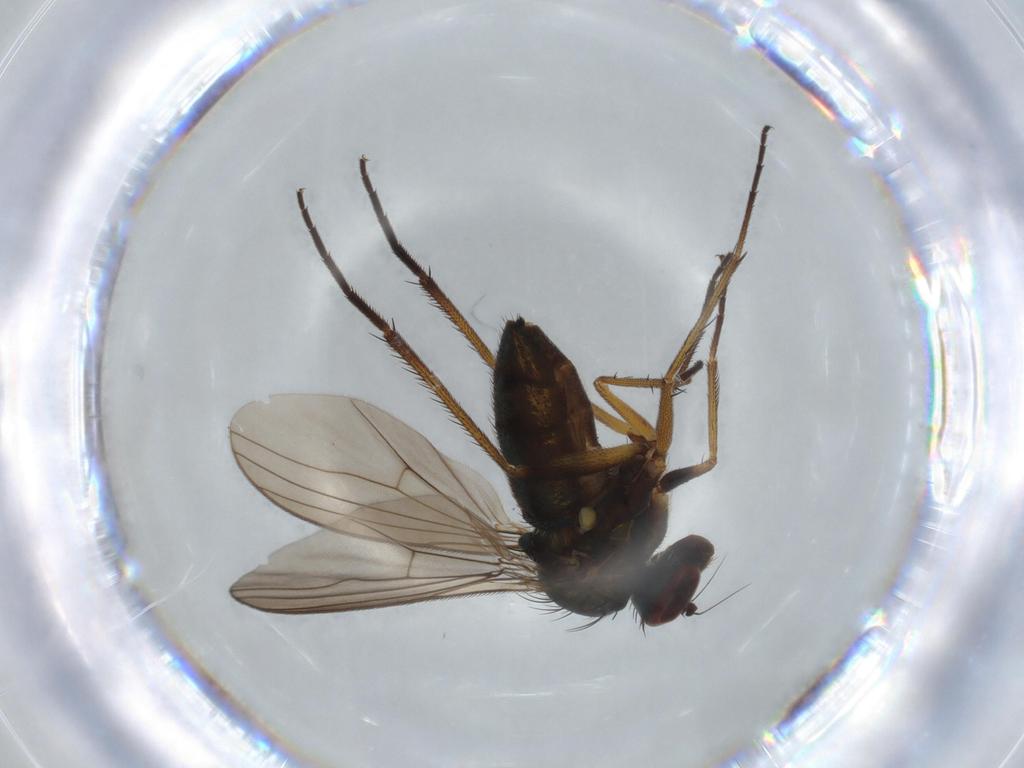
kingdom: Animalia
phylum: Arthropoda
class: Insecta
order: Diptera
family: Dolichopodidae
